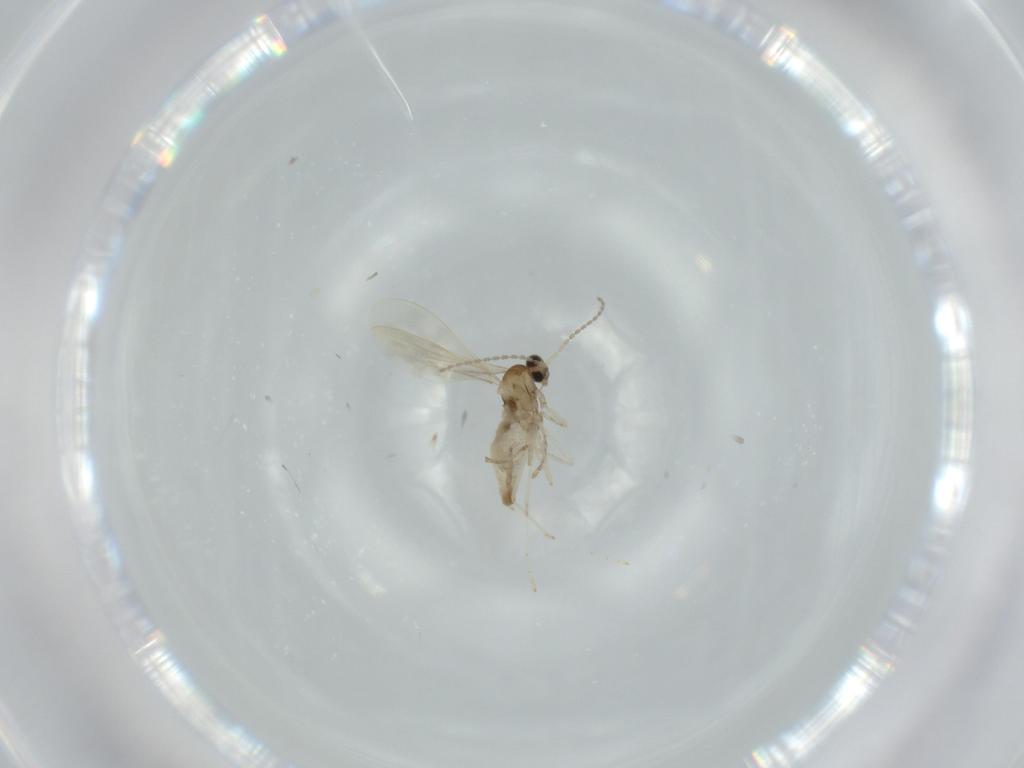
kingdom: Animalia
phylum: Arthropoda
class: Insecta
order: Diptera
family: Cecidomyiidae
